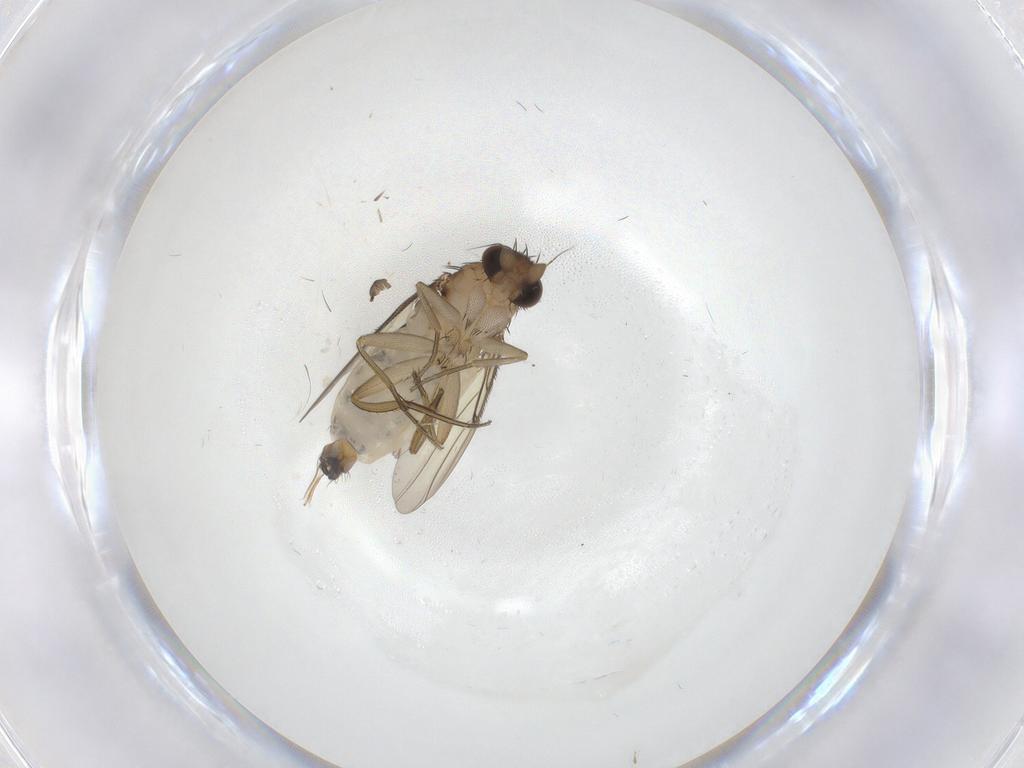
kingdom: Animalia
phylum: Arthropoda
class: Insecta
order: Diptera
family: Phoridae
